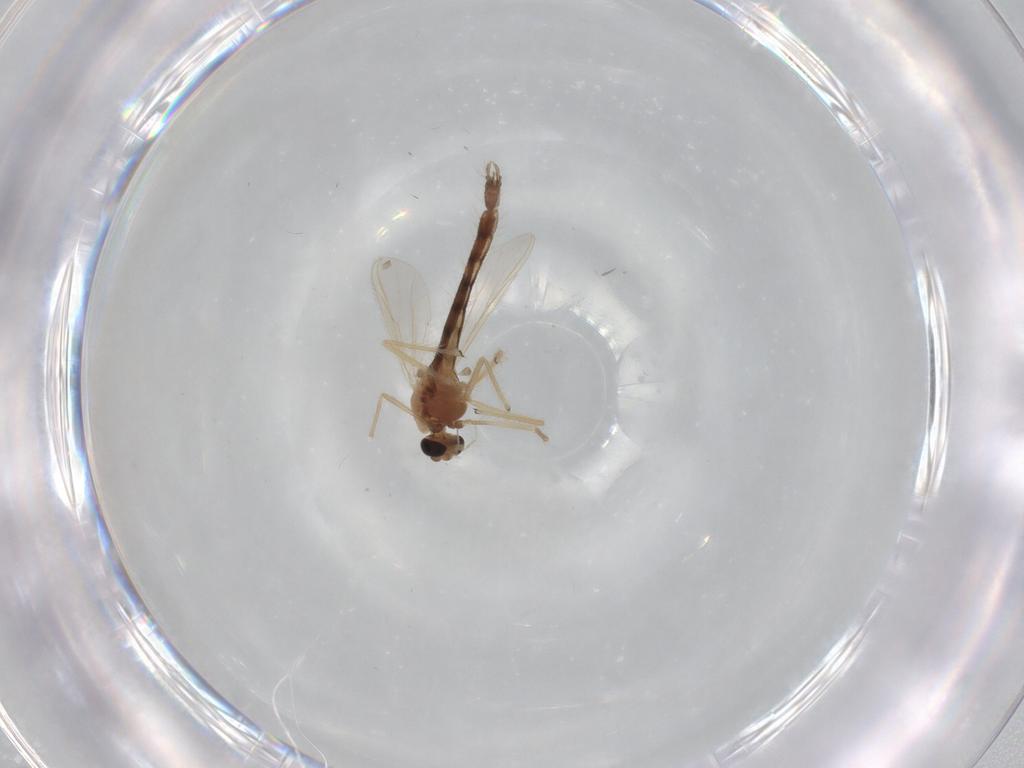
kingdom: Animalia
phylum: Arthropoda
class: Insecta
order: Diptera
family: Chironomidae
